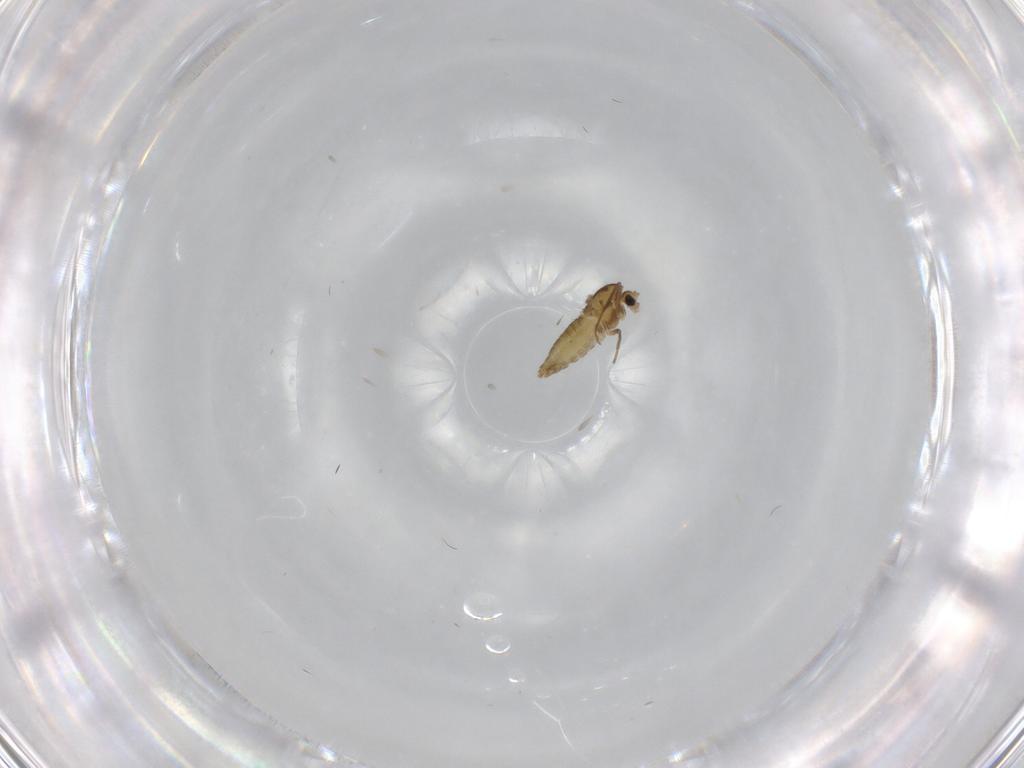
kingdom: Animalia
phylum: Arthropoda
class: Insecta
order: Diptera
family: Chironomidae
